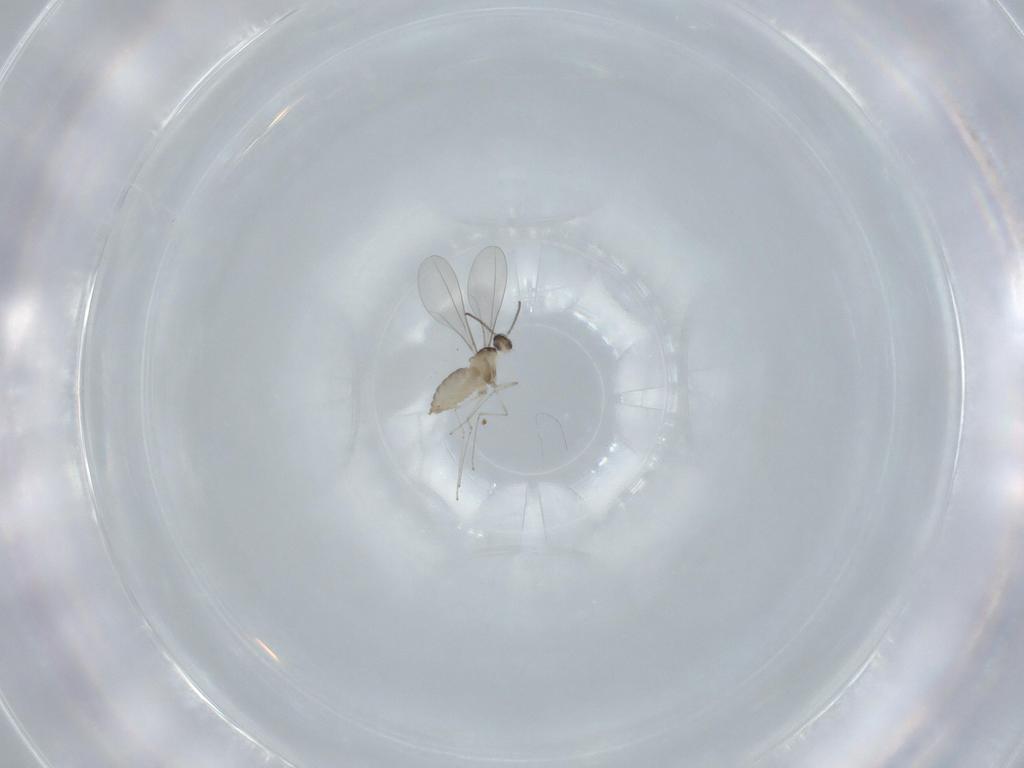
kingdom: Animalia
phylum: Arthropoda
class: Insecta
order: Diptera
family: Cecidomyiidae
